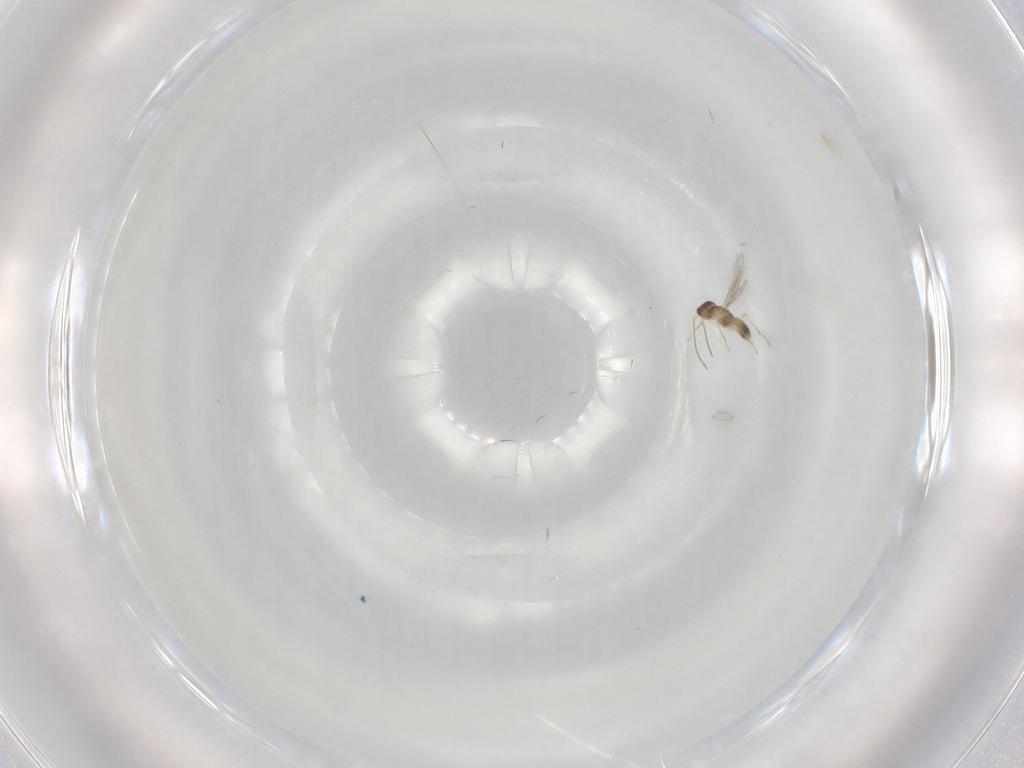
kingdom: Animalia
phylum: Arthropoda
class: Insecta
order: Hymenoptera
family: Mymaridae
